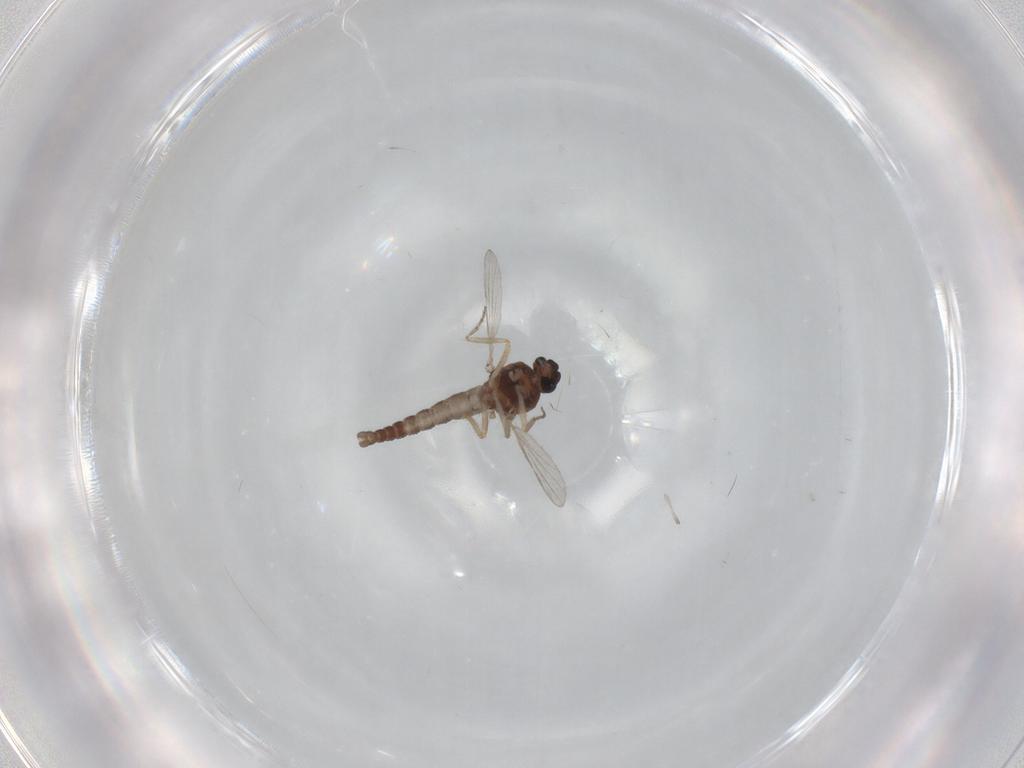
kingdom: Animalia
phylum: Arthropoda
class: Insecta
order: Diptera
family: Ceratopogonidae
